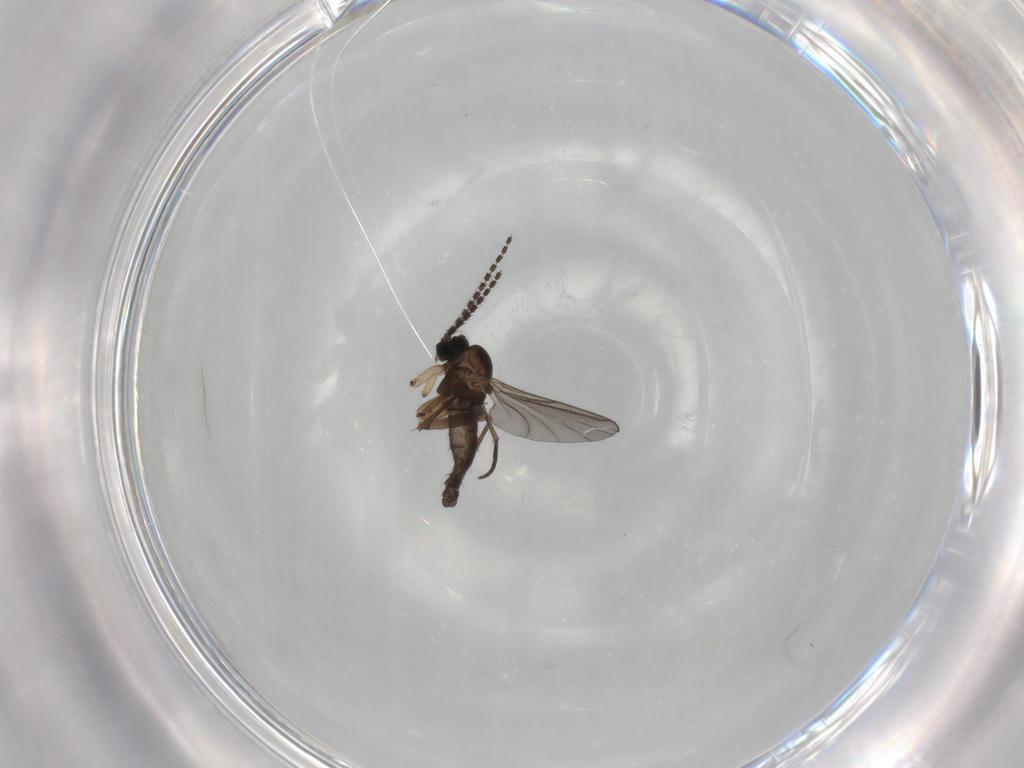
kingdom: Animalia
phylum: Arthropoda
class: Insecta
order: Diptera
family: Sciaridae
